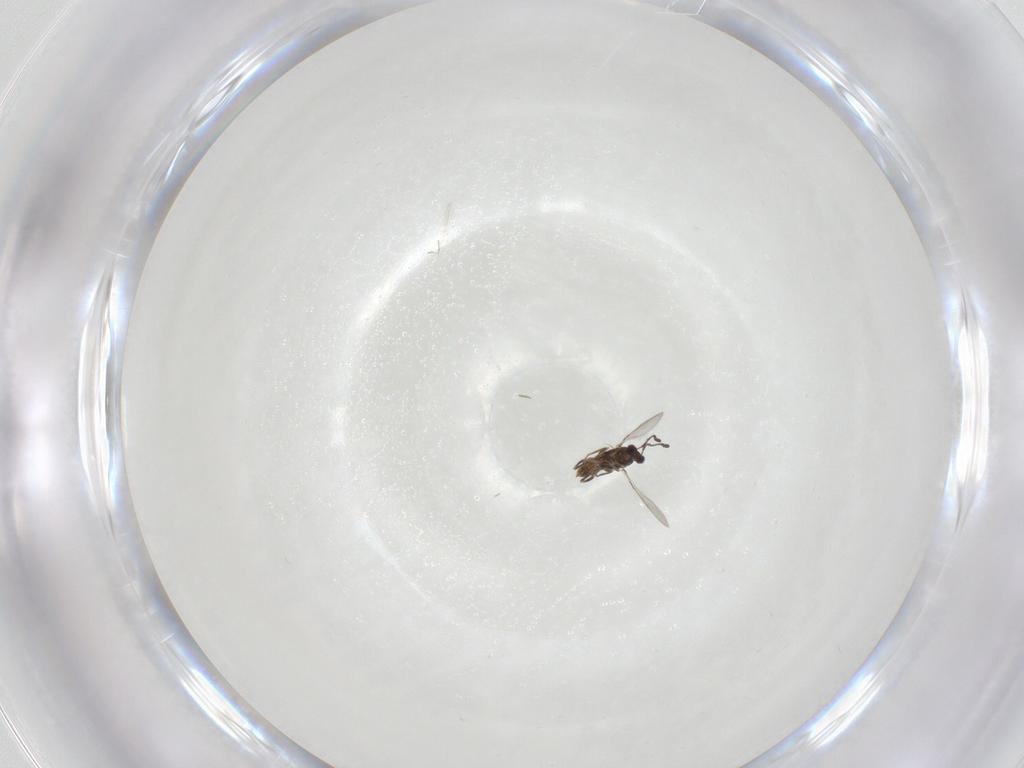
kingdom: Animalia
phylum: Arthropoda
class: Insecta
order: Hymenoptera
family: Mymaridae
